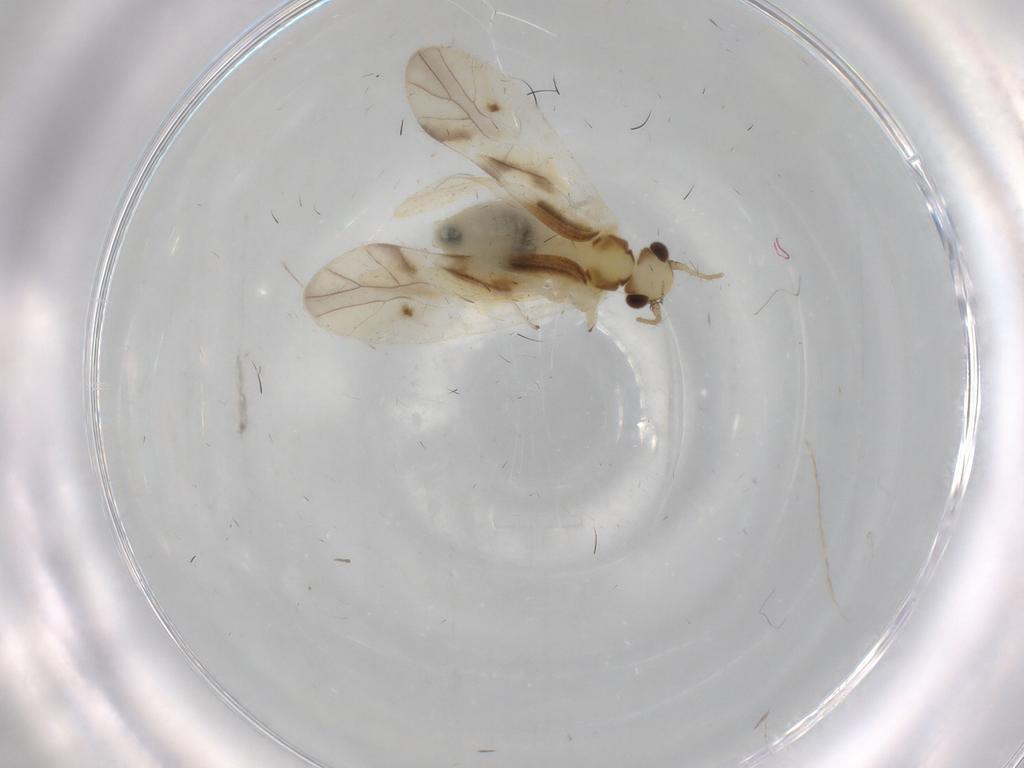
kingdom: Animalia
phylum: Arthropoda
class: Insecta
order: Psocodea
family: Caeciliusidae
